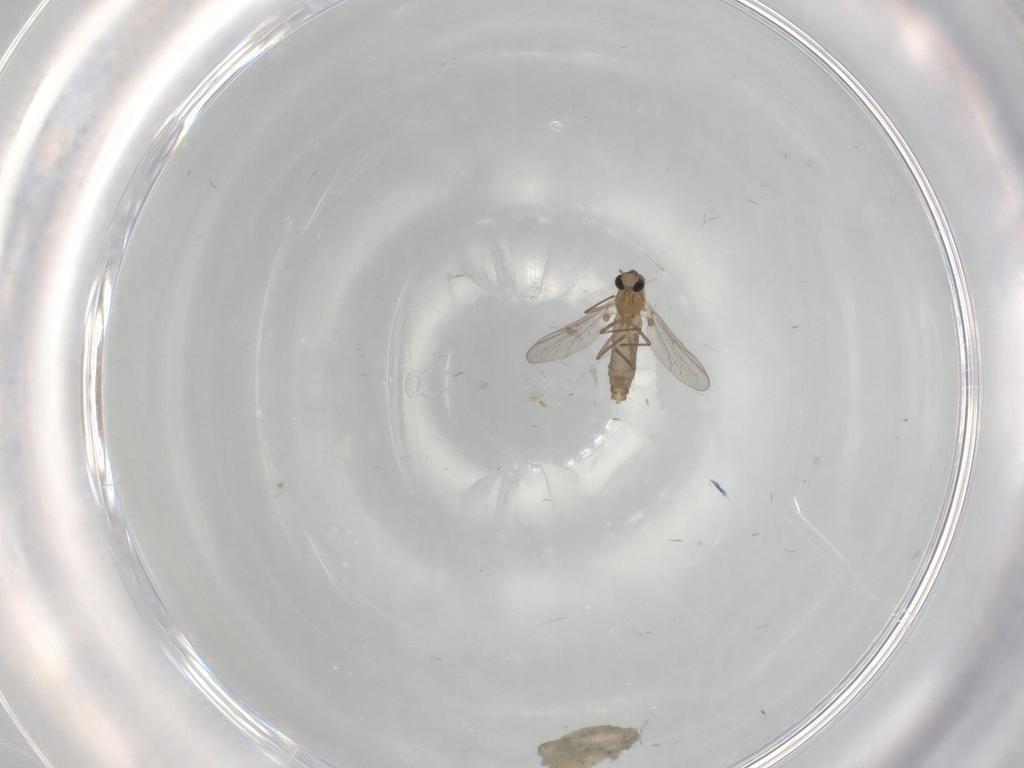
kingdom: Animalia
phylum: Arthropoda
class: Insecta
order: Diptera
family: Chironomidae
